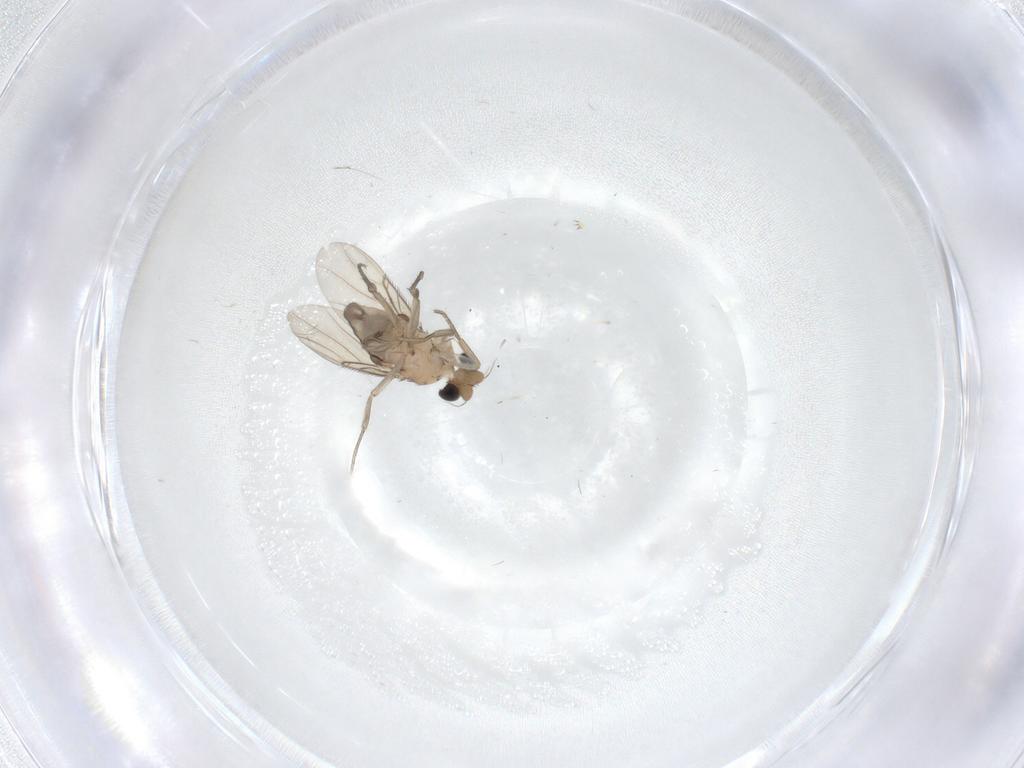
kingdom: Animalia
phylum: Arthropoda
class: Insecta
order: Diptera
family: Phoridae
